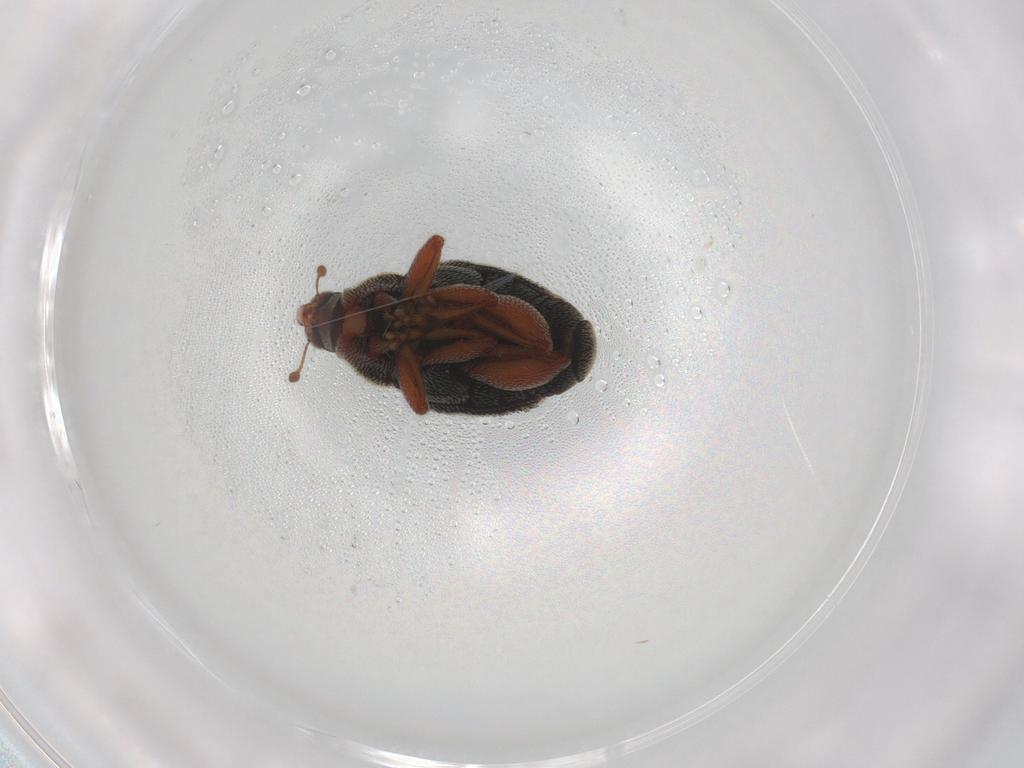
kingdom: Animalia
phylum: Arthropoda
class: Insecta
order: Coleoptera
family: Curculionidae
